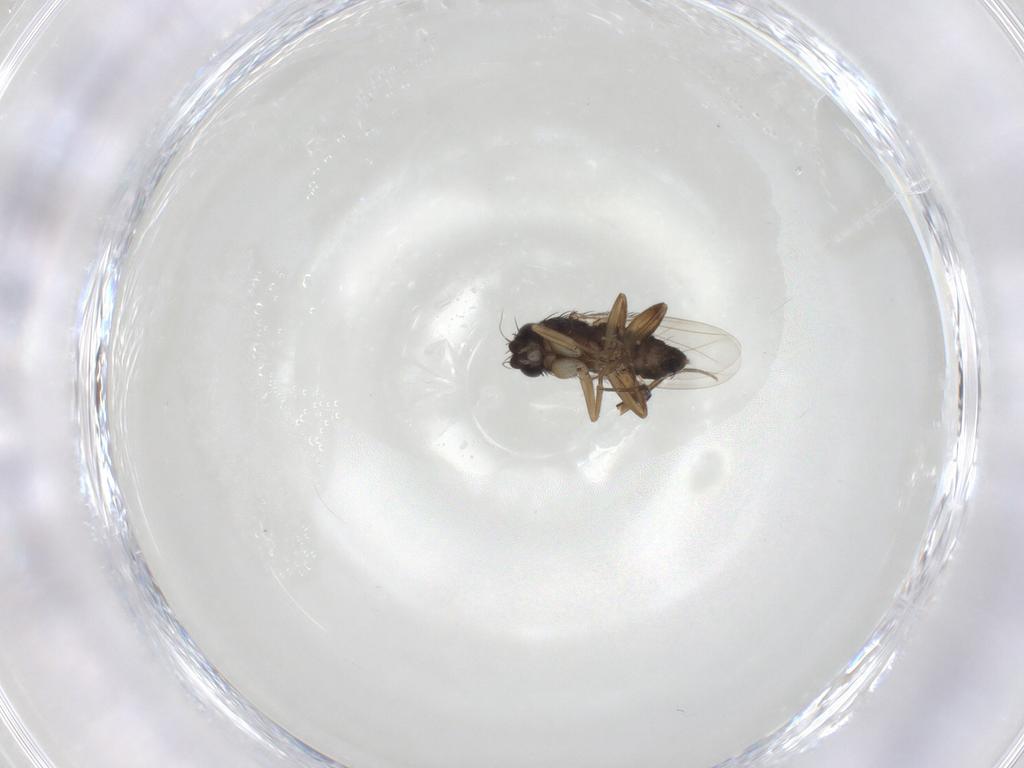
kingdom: Animalia
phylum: Arthropoda
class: Insecta
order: Diptera
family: Phoridae
